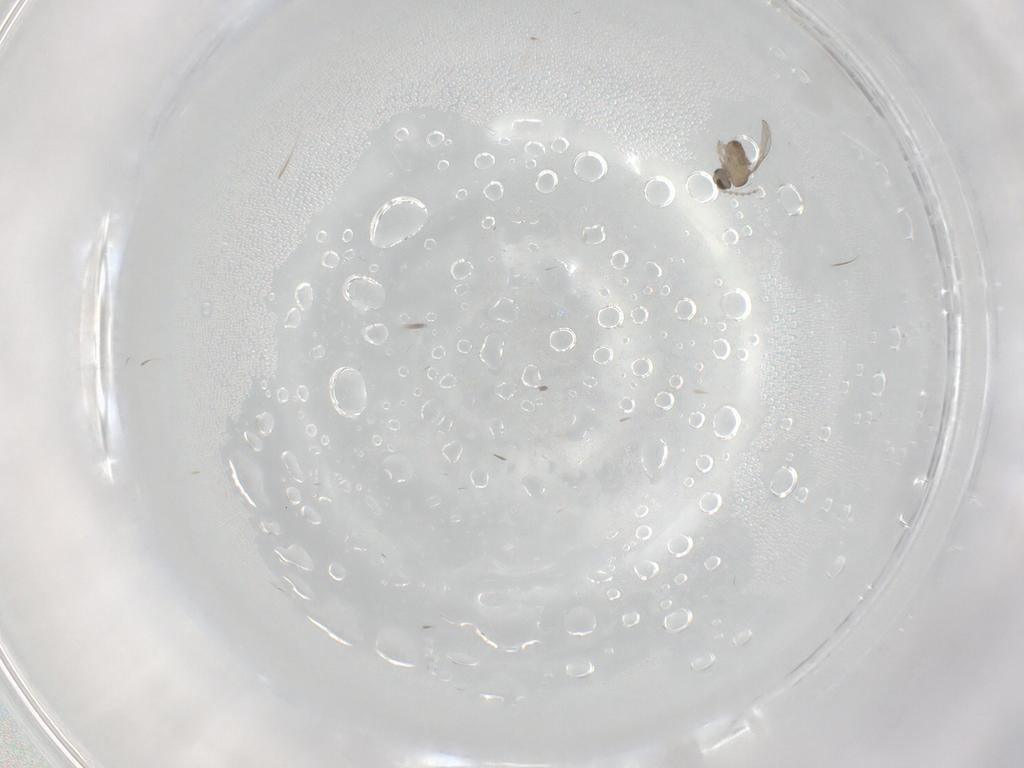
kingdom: Animalia
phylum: Arthropoda
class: Insecta
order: Diptera
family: Cecidomyiidae
